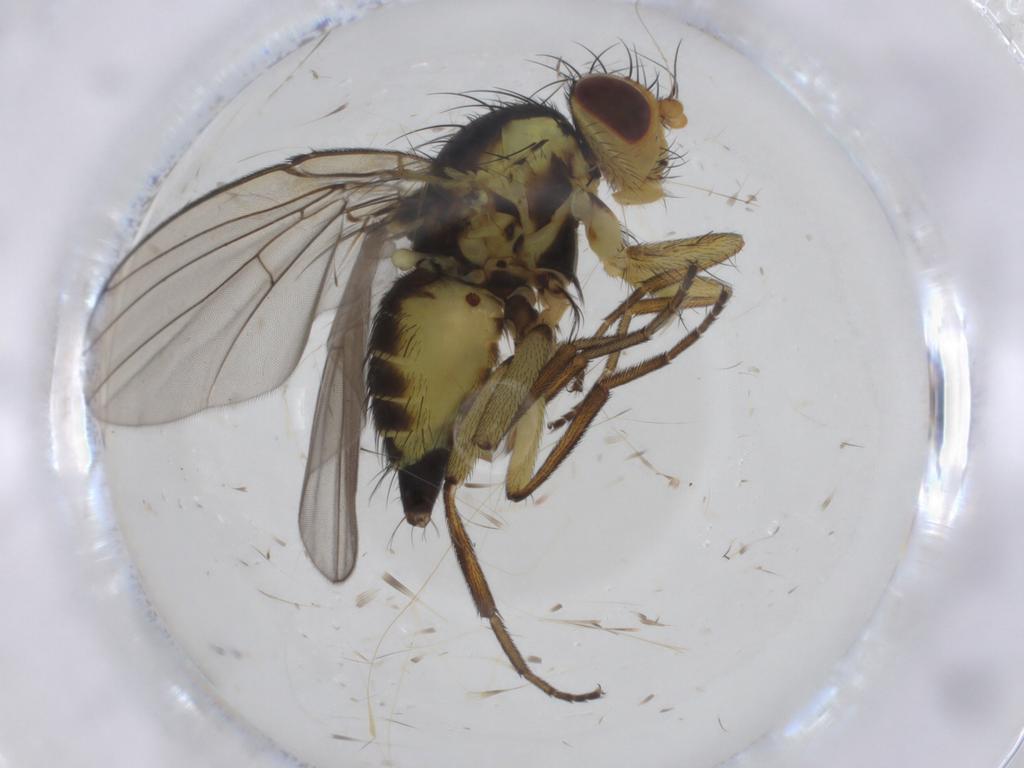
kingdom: Animalia
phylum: Arthropoda
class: Insecta
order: Diptera
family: Agromyzidae
